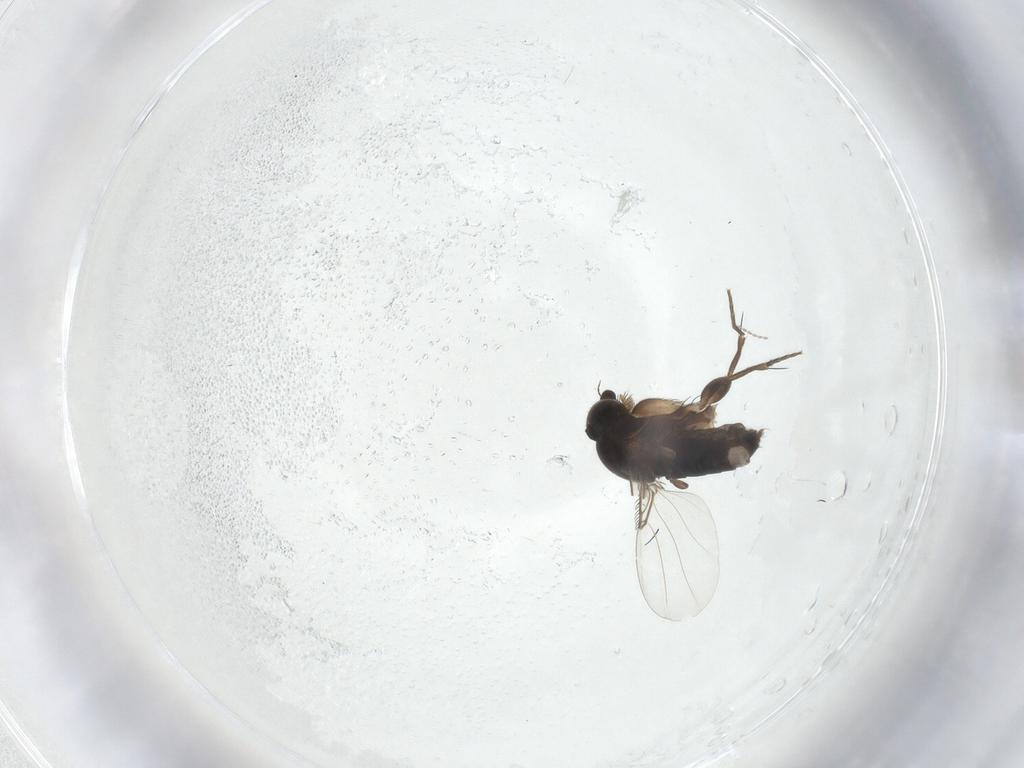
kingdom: Animalia
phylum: Arthropoda
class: Insecta
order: Diptera
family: Phoridae
